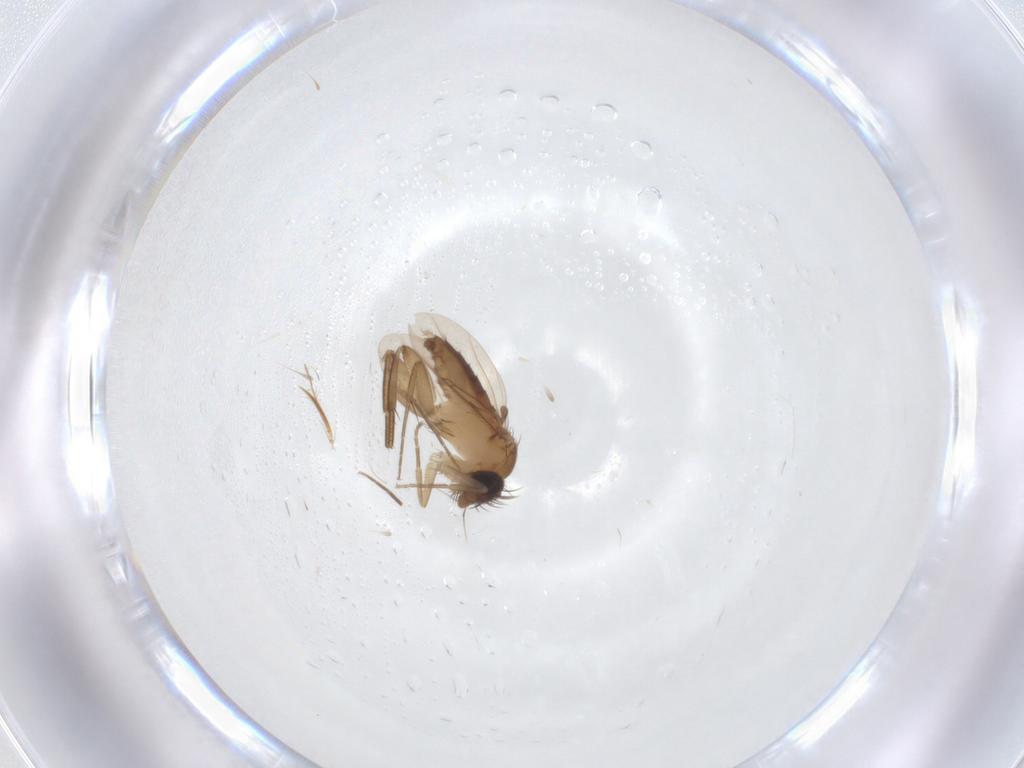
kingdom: Animalia
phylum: Arthropoda
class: Insecta
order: Diptera
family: Phoridae
